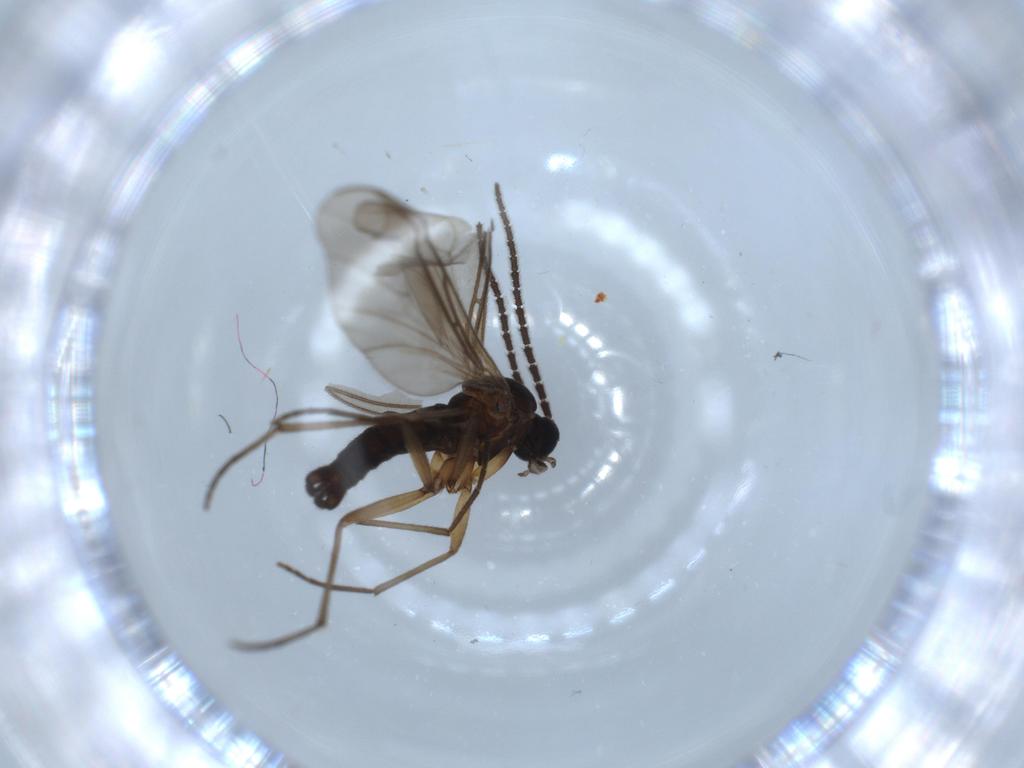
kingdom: Animalia
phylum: Arthropoda
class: Insecta
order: Diptera
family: Sciaridae
